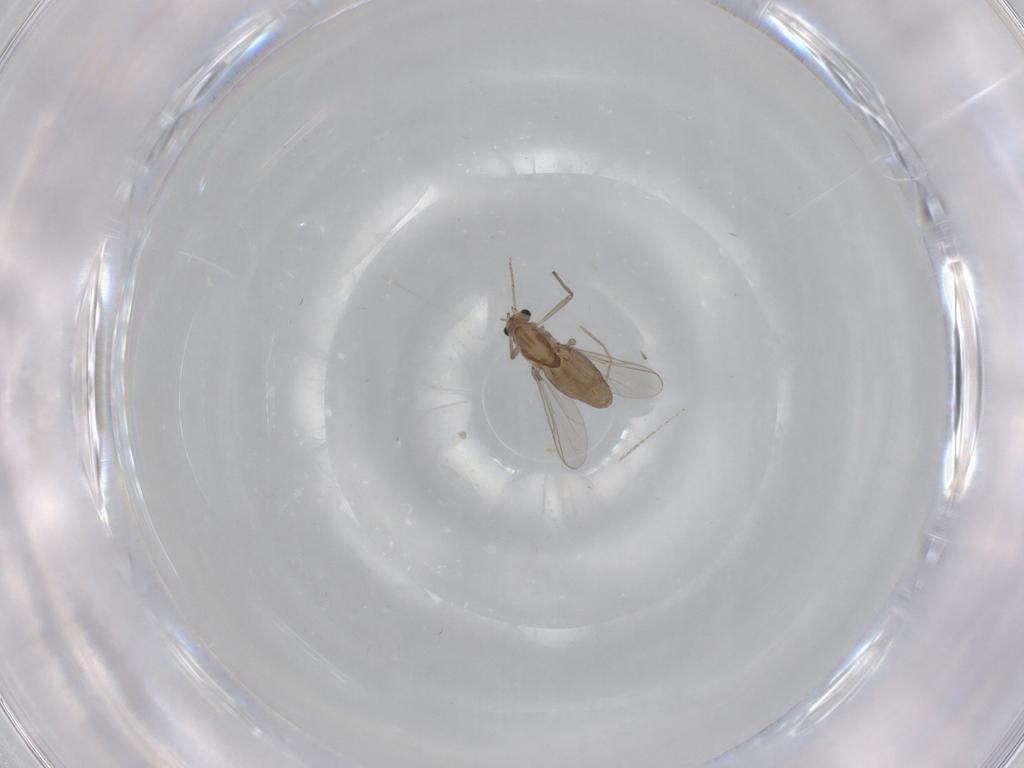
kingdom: Animalia
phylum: Arthropoda
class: Insecta
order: Diptera
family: Chironomidae
